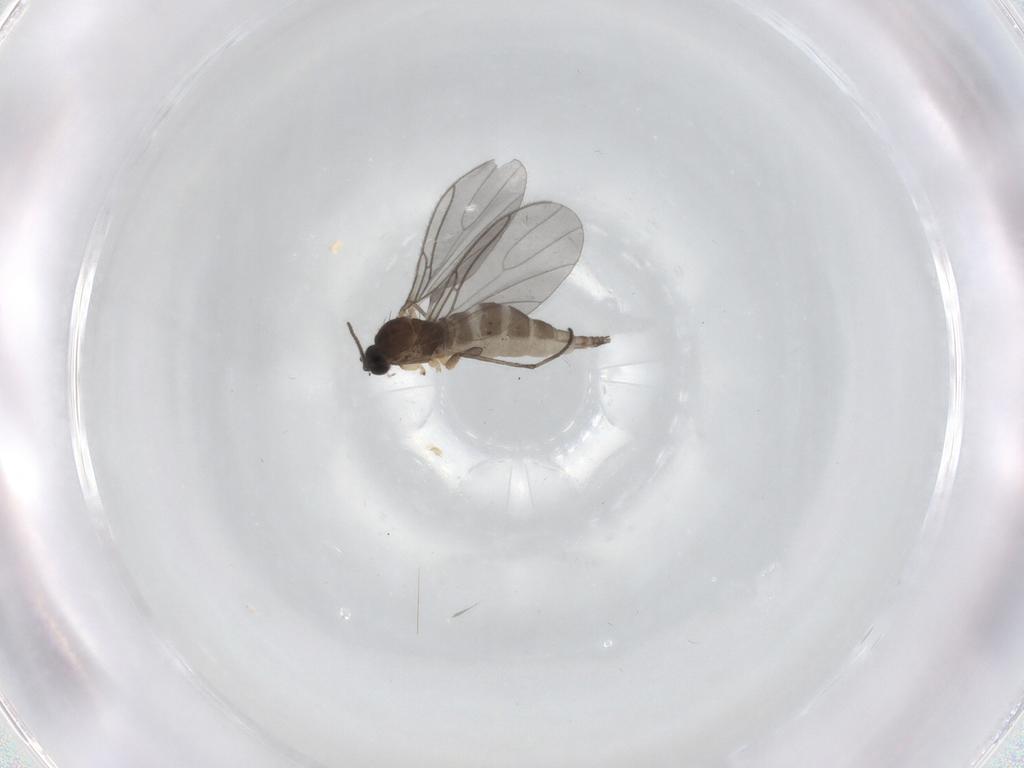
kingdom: Animalia
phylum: Arthropoda
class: Insecta
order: Diptera
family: Sciaridae
